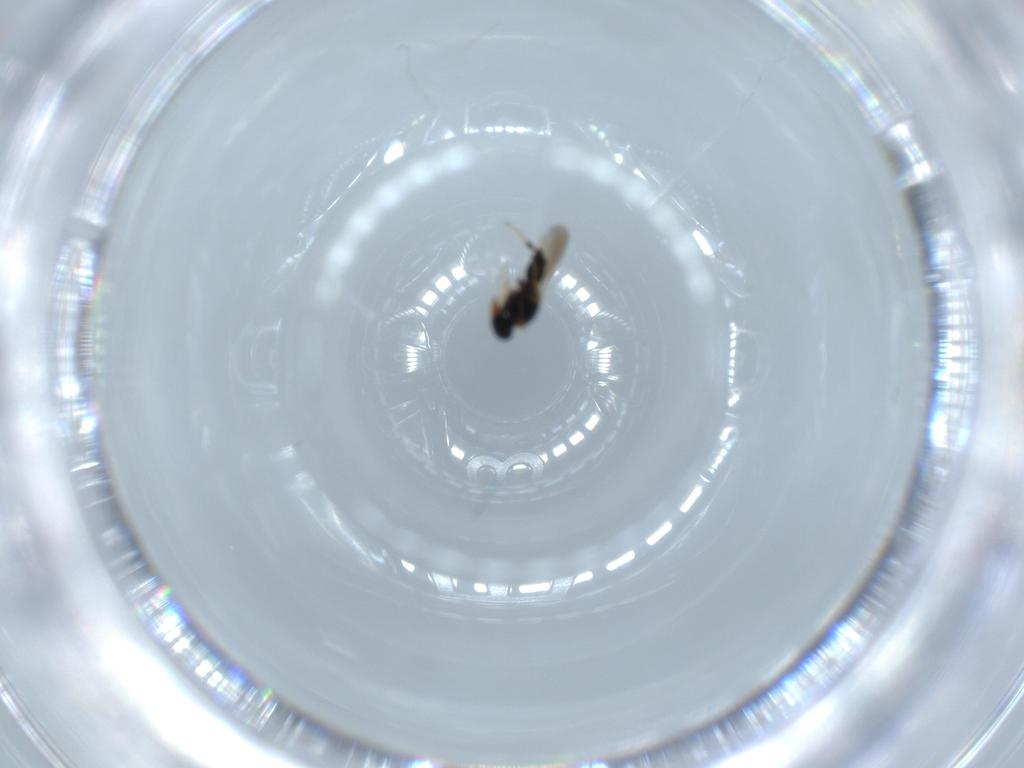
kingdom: Animalia
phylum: Arthropoda
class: Insecta
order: Hymenoptera
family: Platygastridae
